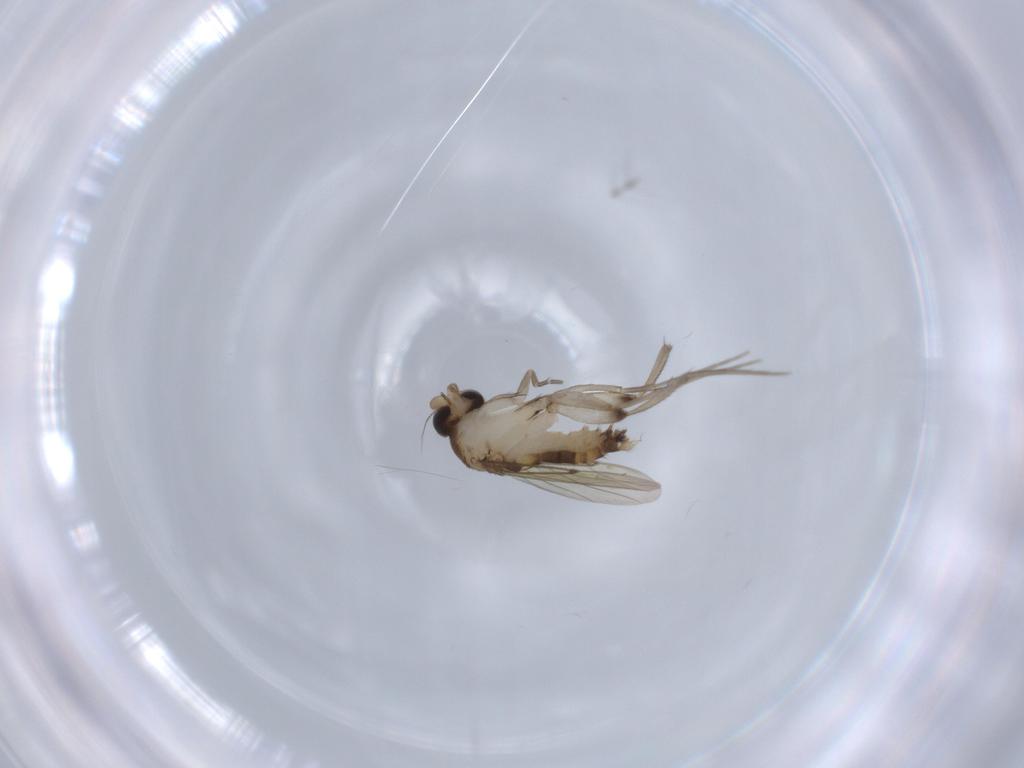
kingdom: Animalia
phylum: Arthropoda
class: Insecta
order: Diptera
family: Chironomidae
